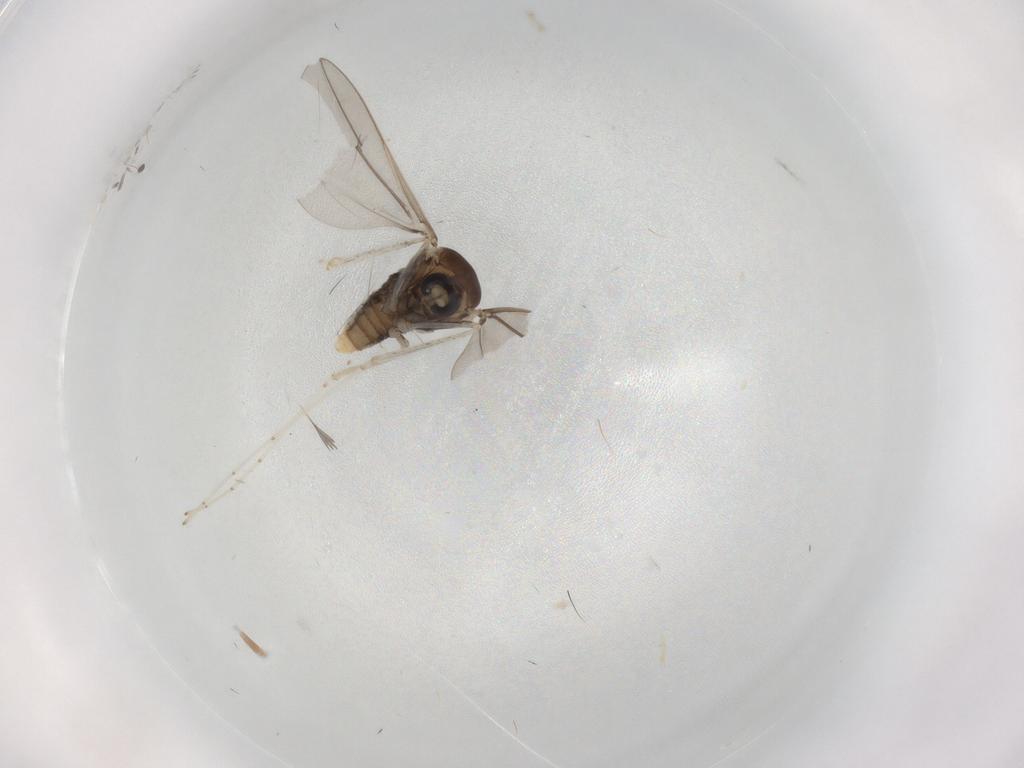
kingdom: Animalia
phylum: Arthropoda
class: Insecta
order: Diptera
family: Cecidomyiidae
